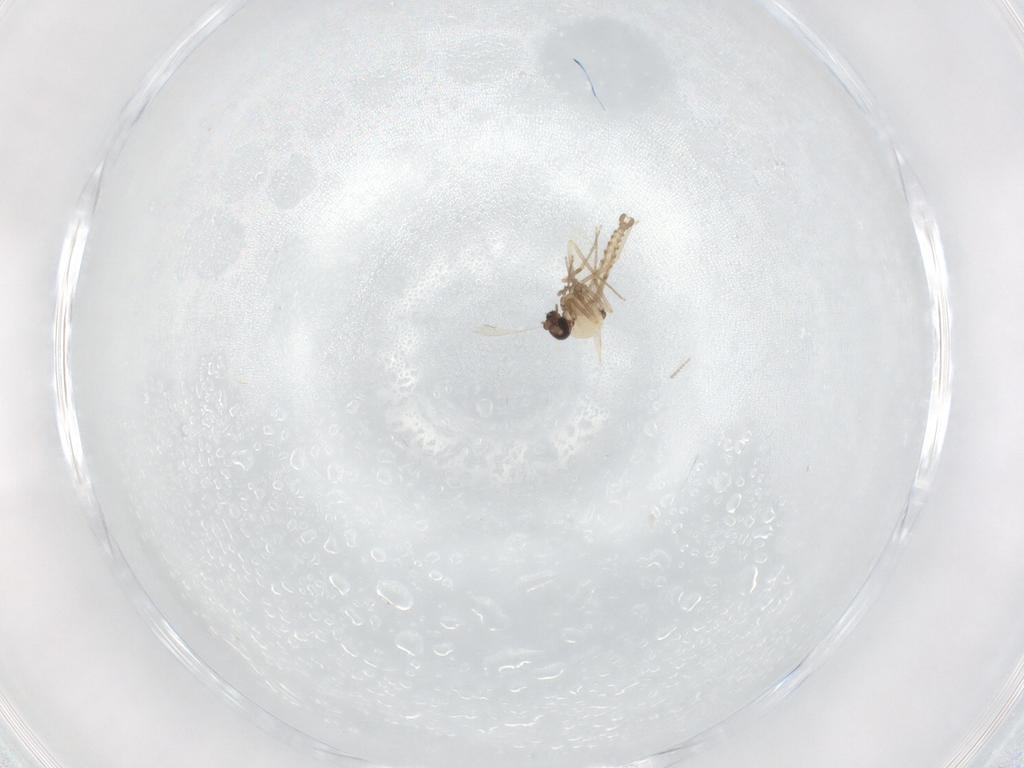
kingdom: Animalia
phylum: Arthropoda
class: Insecta
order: Diptera
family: Ceratopogonidae
